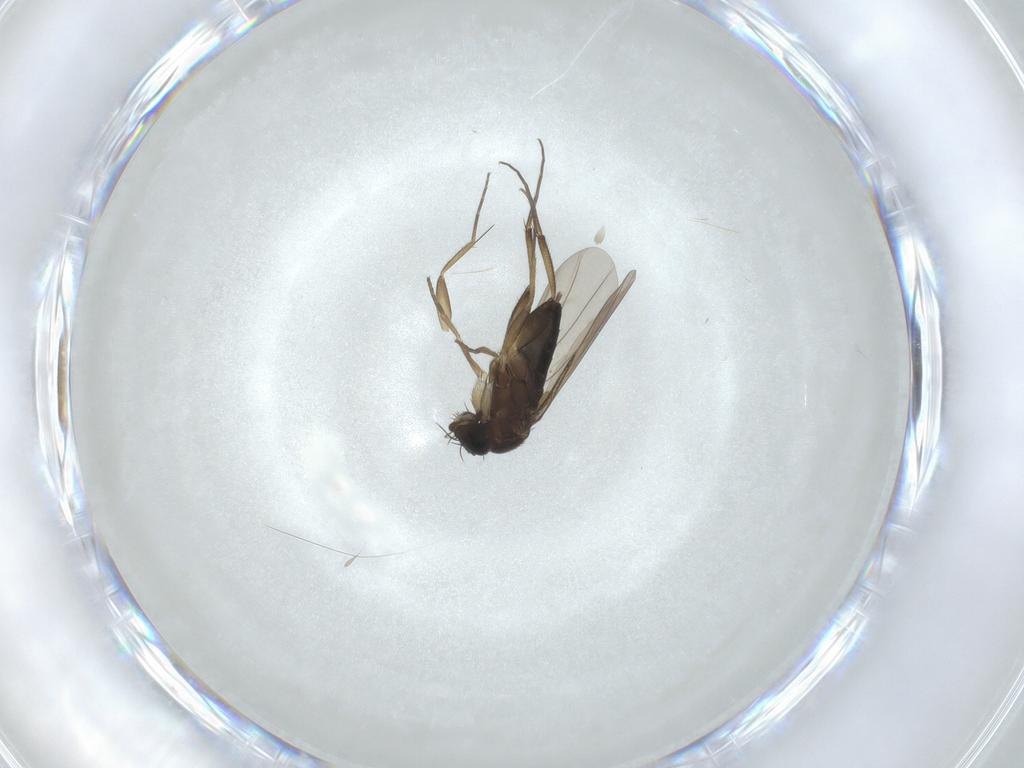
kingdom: Animalia
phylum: Arthropoda
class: Insecta
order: Diptera
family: Phoridae
